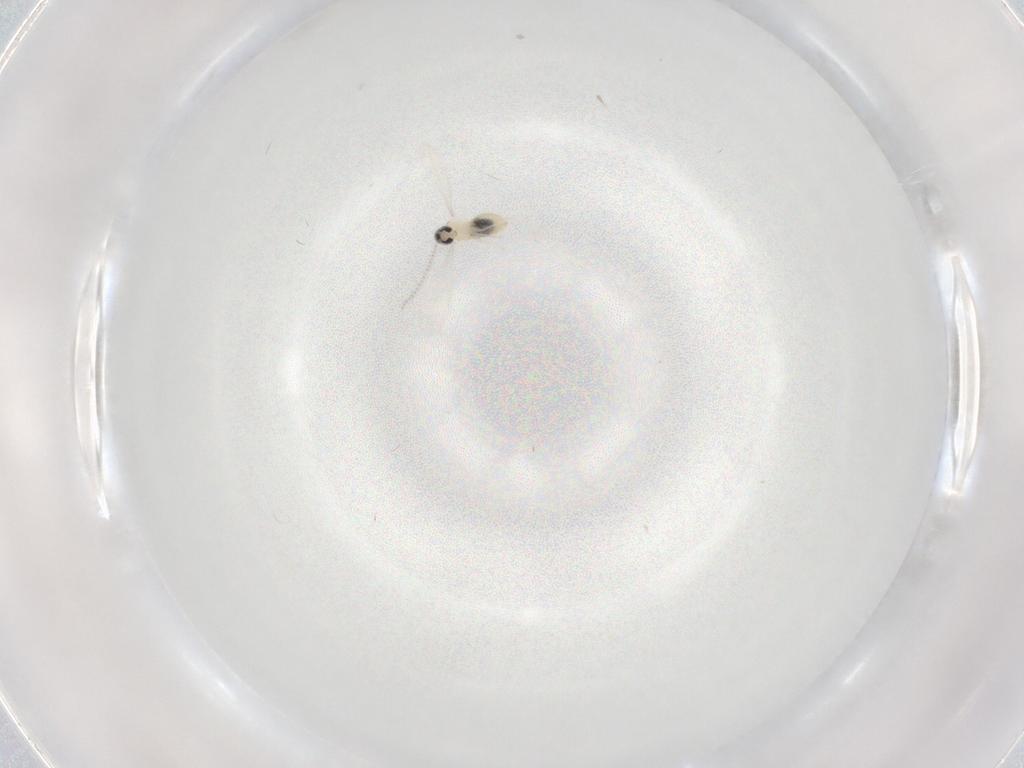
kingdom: Animalia
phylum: Arthropoda
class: Insecta
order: Diptera
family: Cecidomyiidae
